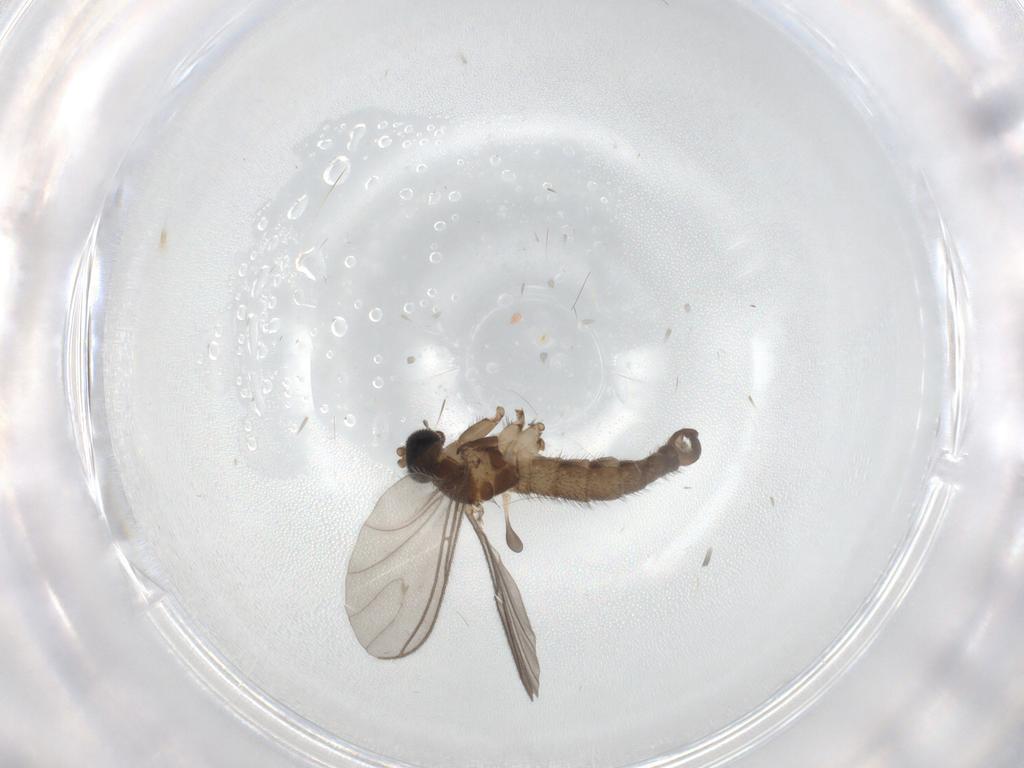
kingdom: Animalia
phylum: Arthropoda
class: Insecta
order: Diptera
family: Sciaridae
